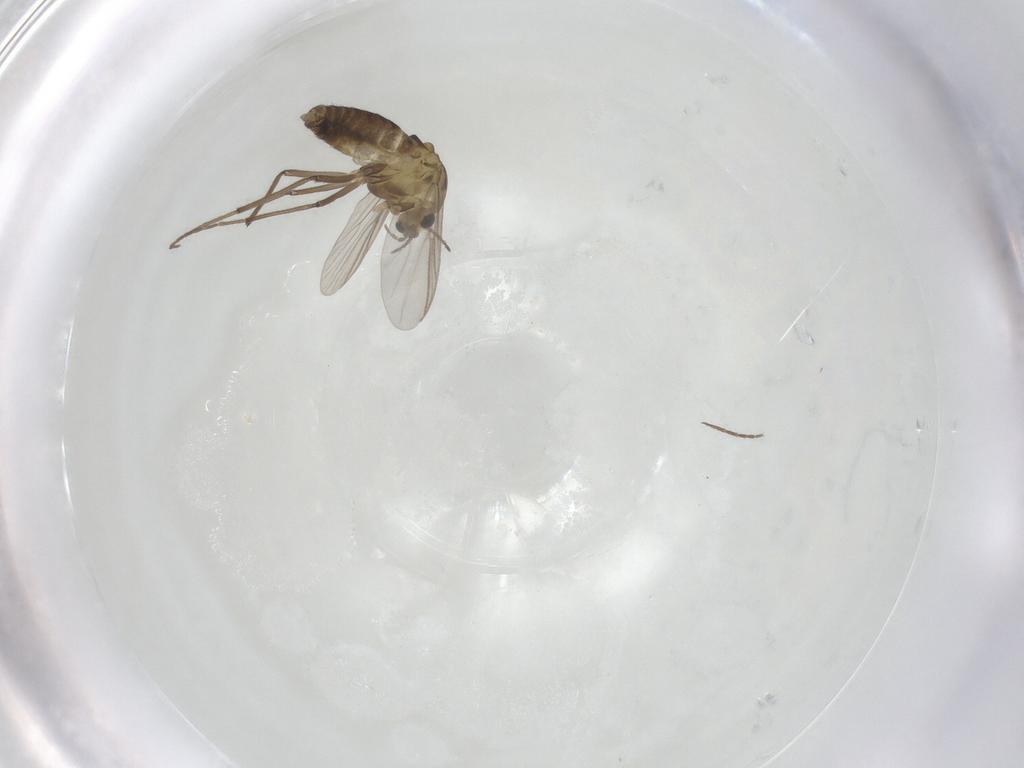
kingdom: Animalia
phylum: Arthropoda
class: Insecta
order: Diptera
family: Chironomidae
